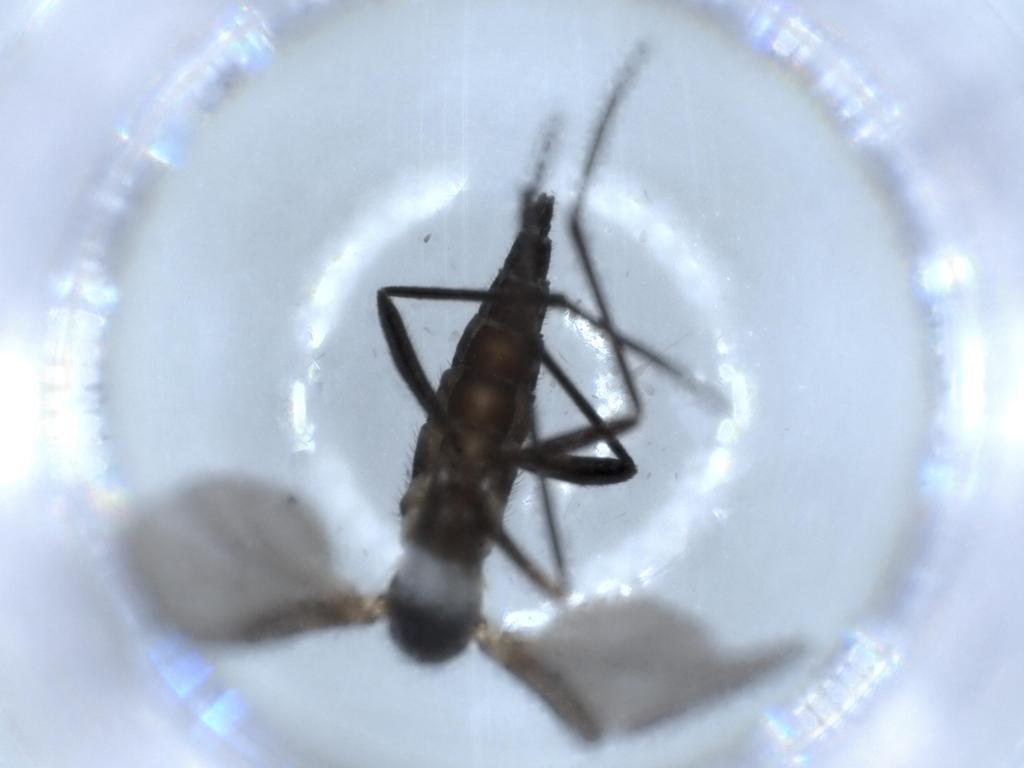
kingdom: Animalia
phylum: Arthropoda
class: Insecta
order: Diptera
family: Sciaridae
